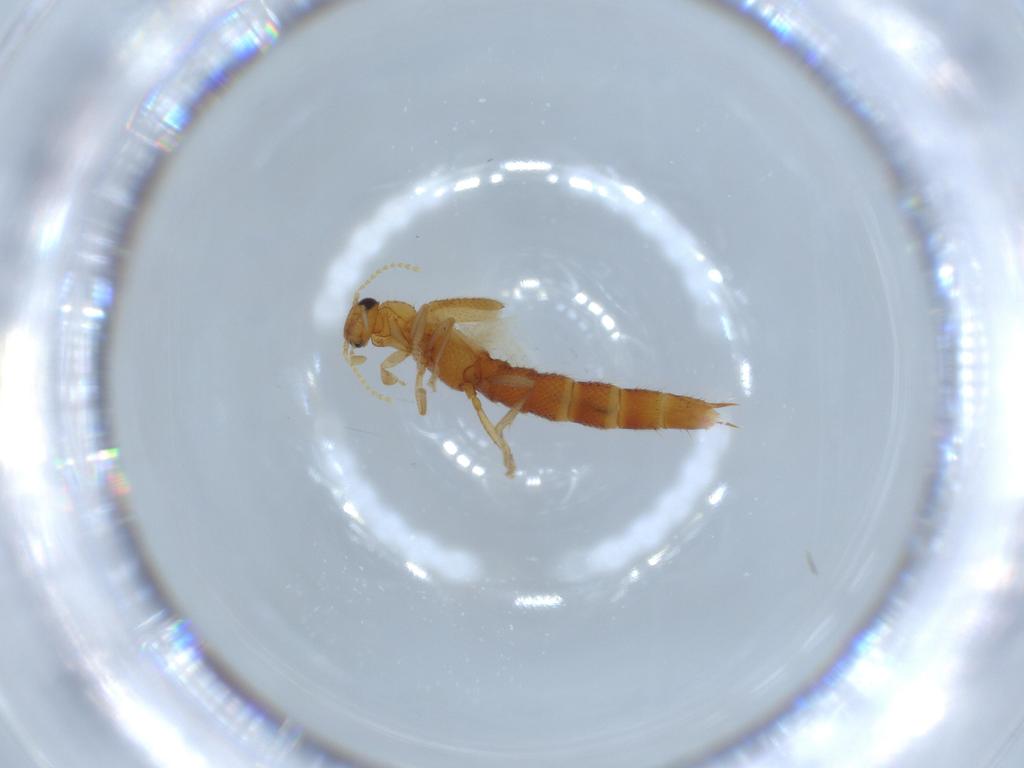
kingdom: Animalia
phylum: Arthropoda
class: Insecta
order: Coleoptera
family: Staphylinidae
